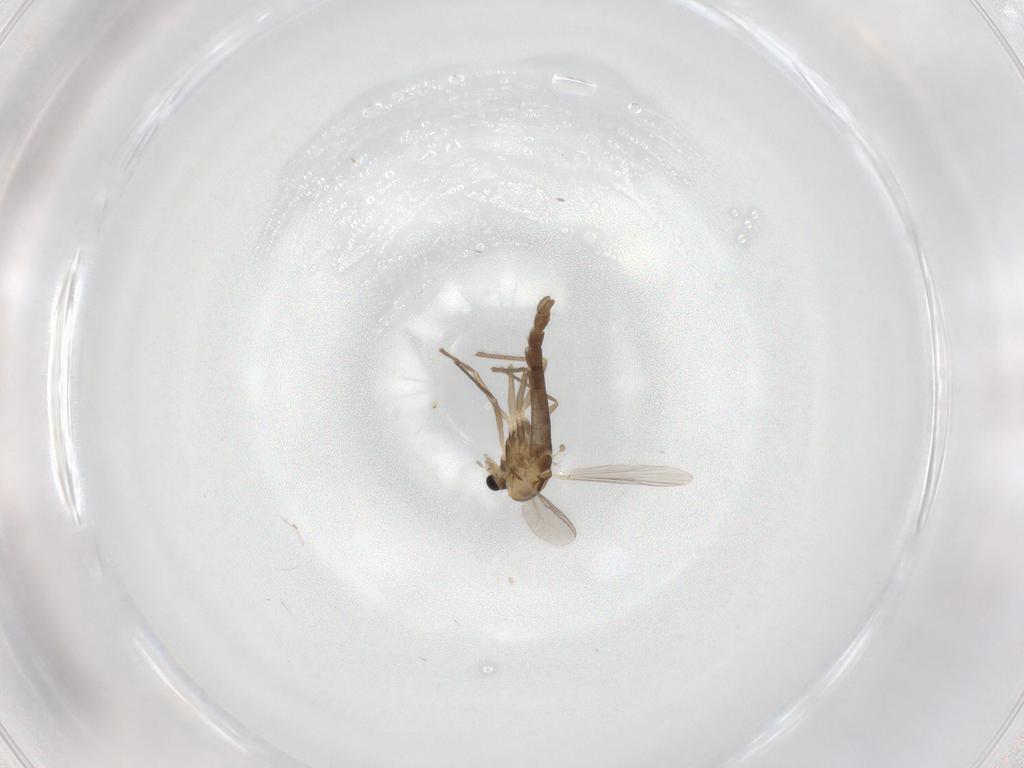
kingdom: Animalia
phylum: Arthropoda
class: Insecta
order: Diptera
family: Chironomidae
